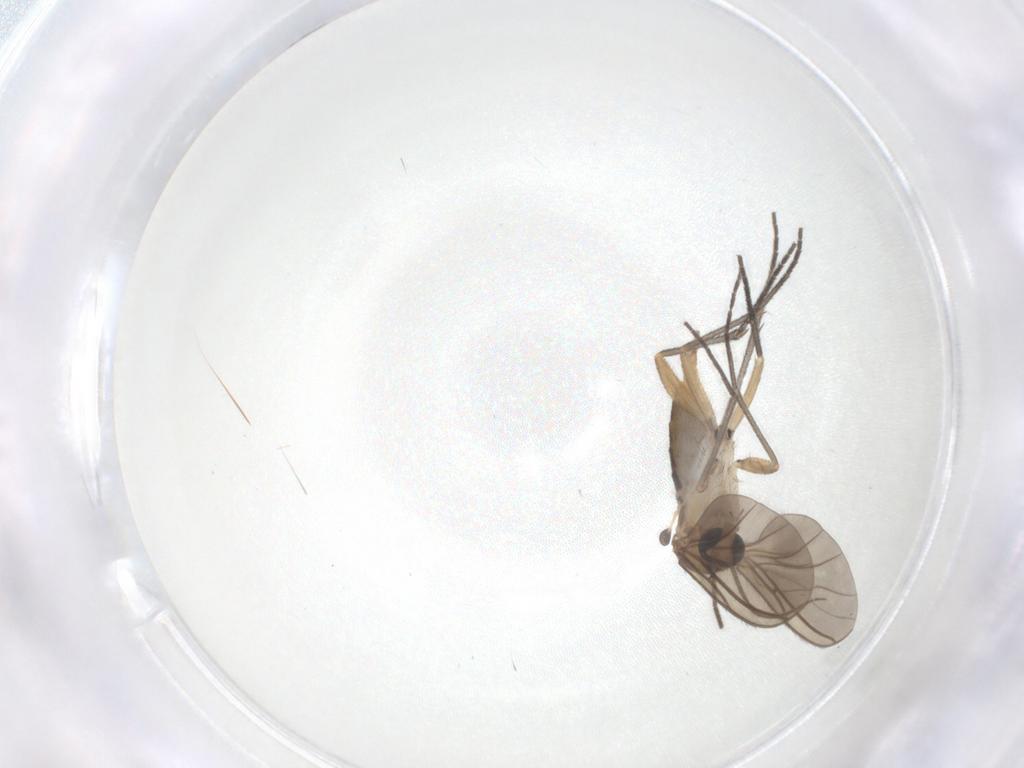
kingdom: Animalia
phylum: Arthropoda
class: Insecta
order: Diptera
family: Sciaridae
